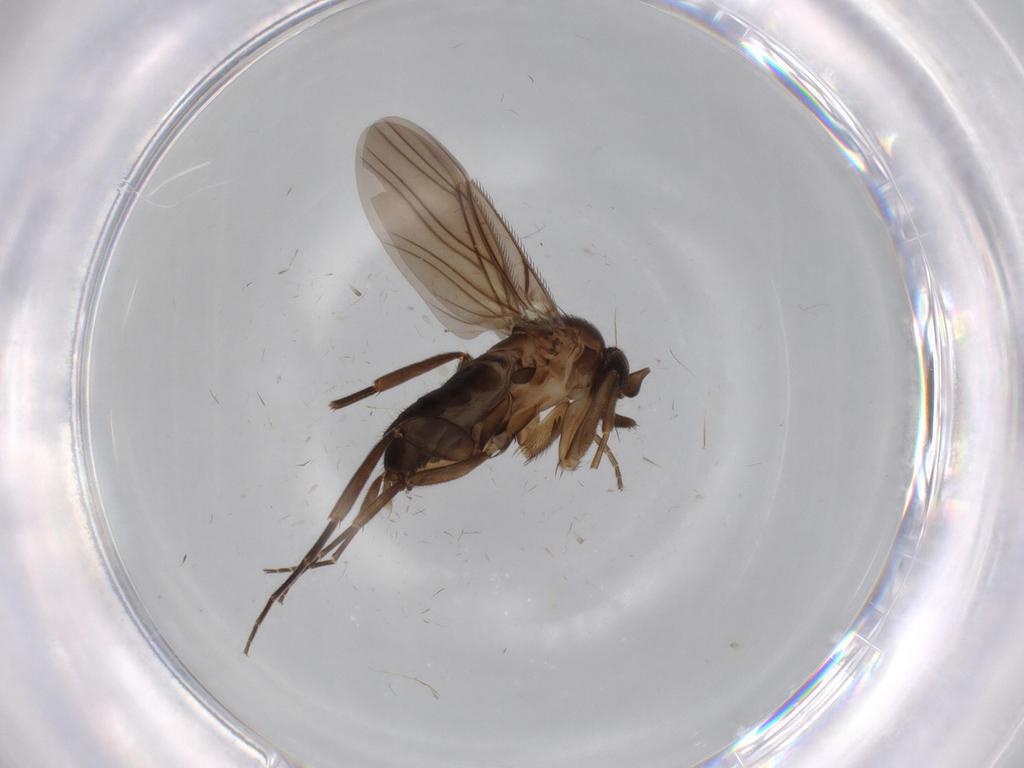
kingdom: Animalia
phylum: Arthropoda
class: Insecta
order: Diptera
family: Phoridae
